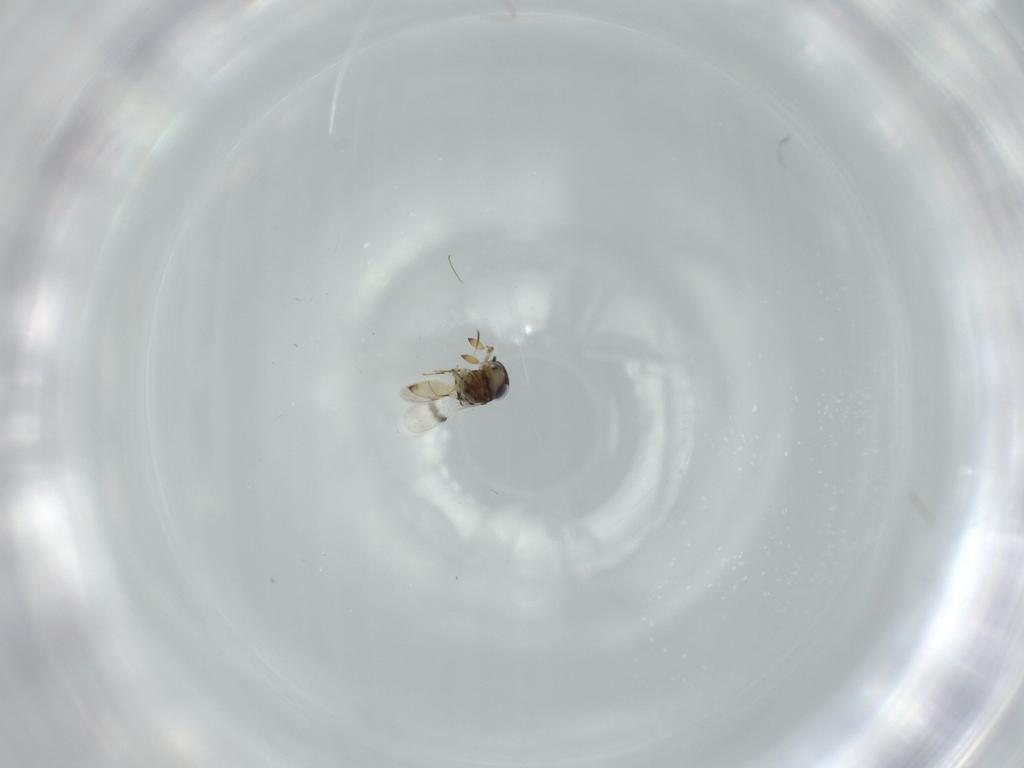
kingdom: Animalia
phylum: Arthropoda
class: Insecta
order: Hymenoptera
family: Scelionidae
